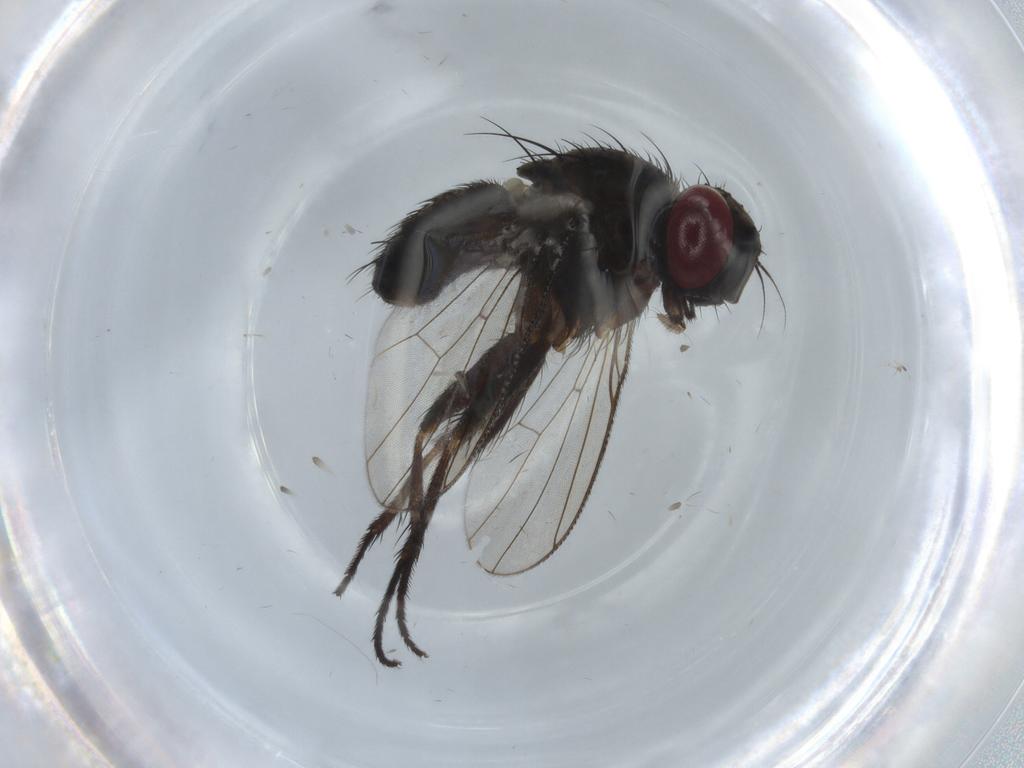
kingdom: Animalia
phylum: Arthropoda
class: Insecta
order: Diptera
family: Muscidae
